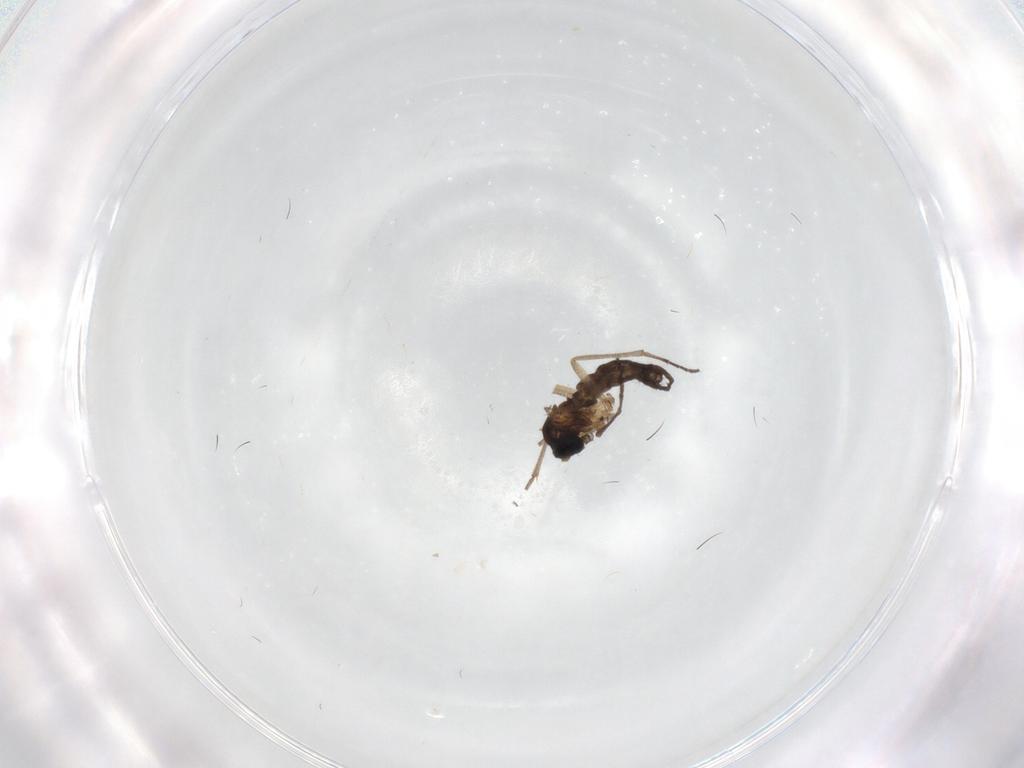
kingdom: Animalia
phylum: Arthropoda
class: Insecta
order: Diptera
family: Sciaridae
